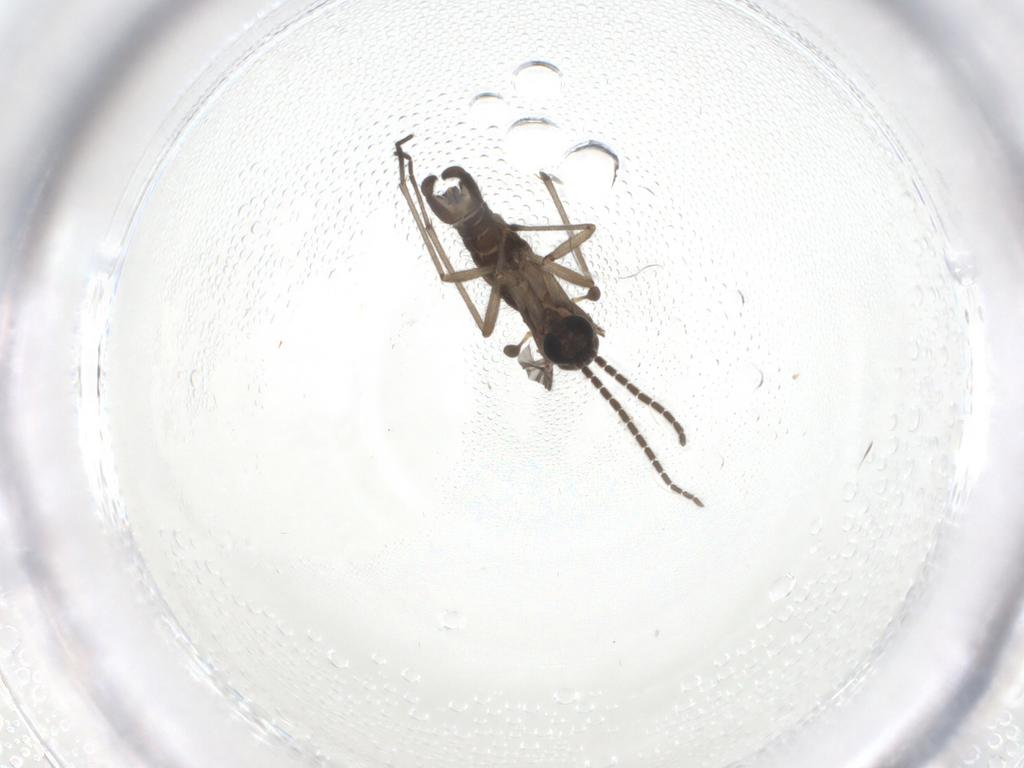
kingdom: Animalia
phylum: Arthropoda
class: Insecta
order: Diptera
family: Sciaridae
